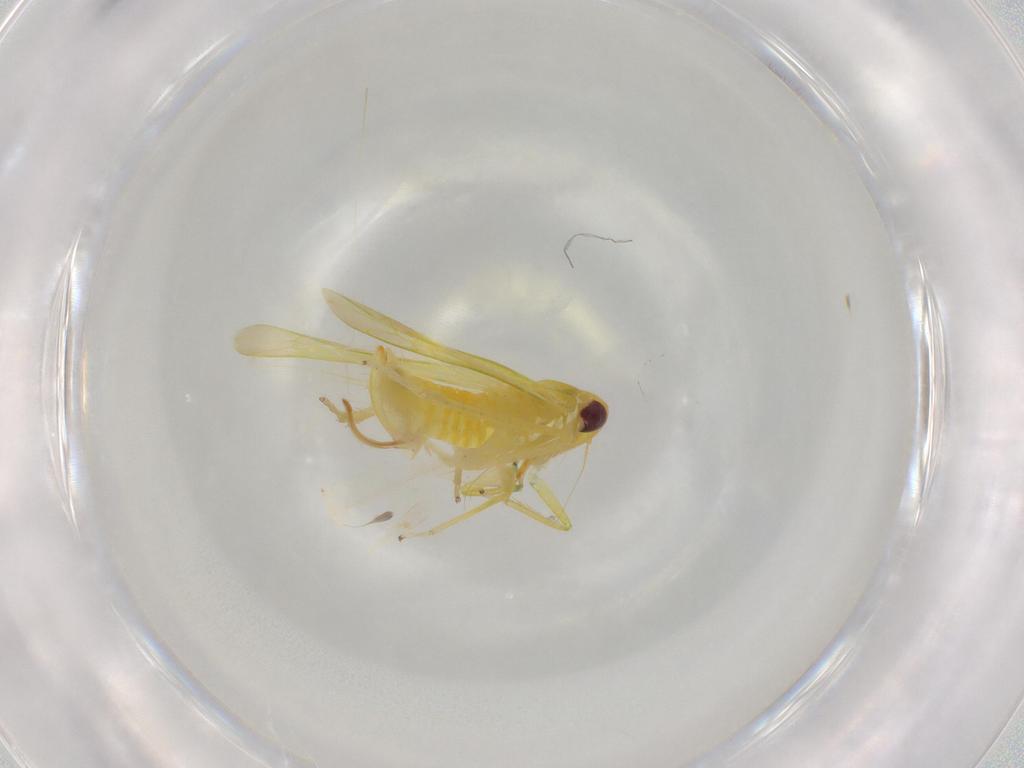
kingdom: Animalia
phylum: Arthropoda
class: Insecta
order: Hemiptera
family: Cicadellidae
